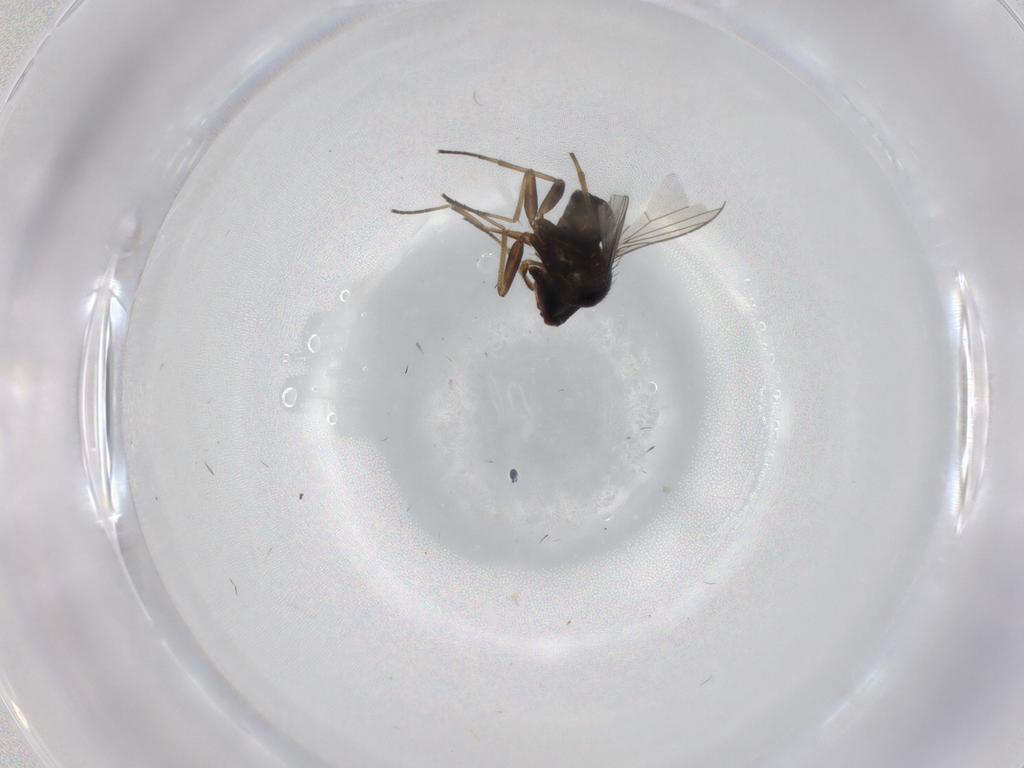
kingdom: Animalia
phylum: Arthropoda
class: Insecta
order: Diptera
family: Dolichopodidae
